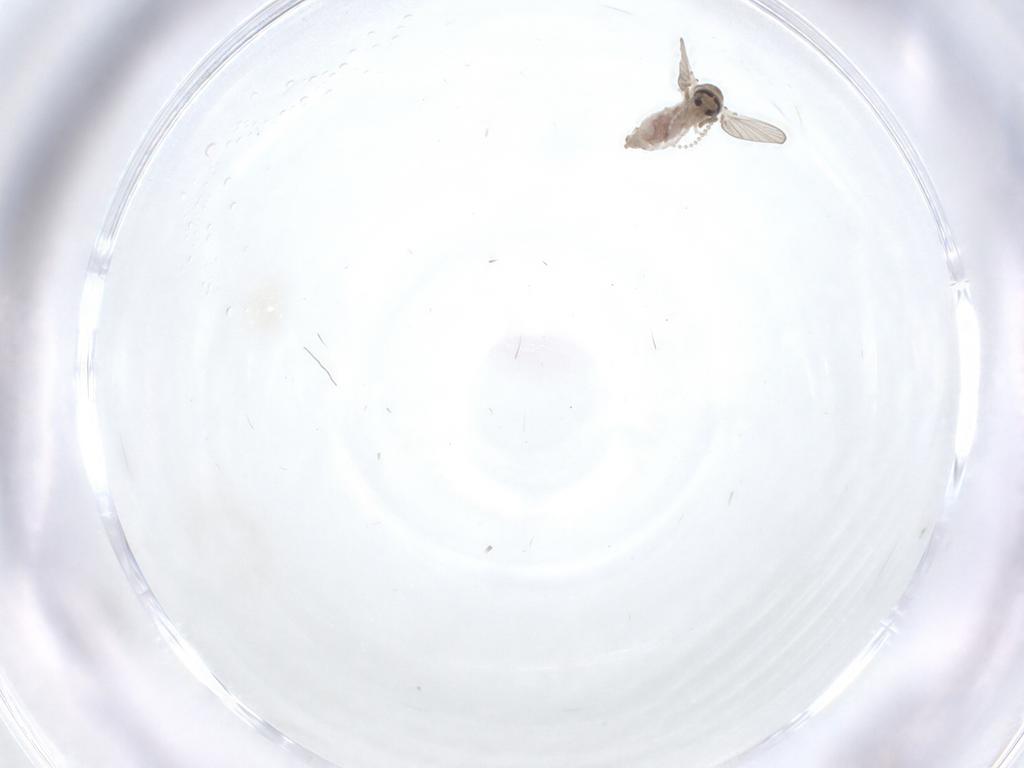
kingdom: Animalia
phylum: Arthropoda
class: Insecta
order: Diptera
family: Psychodidae
